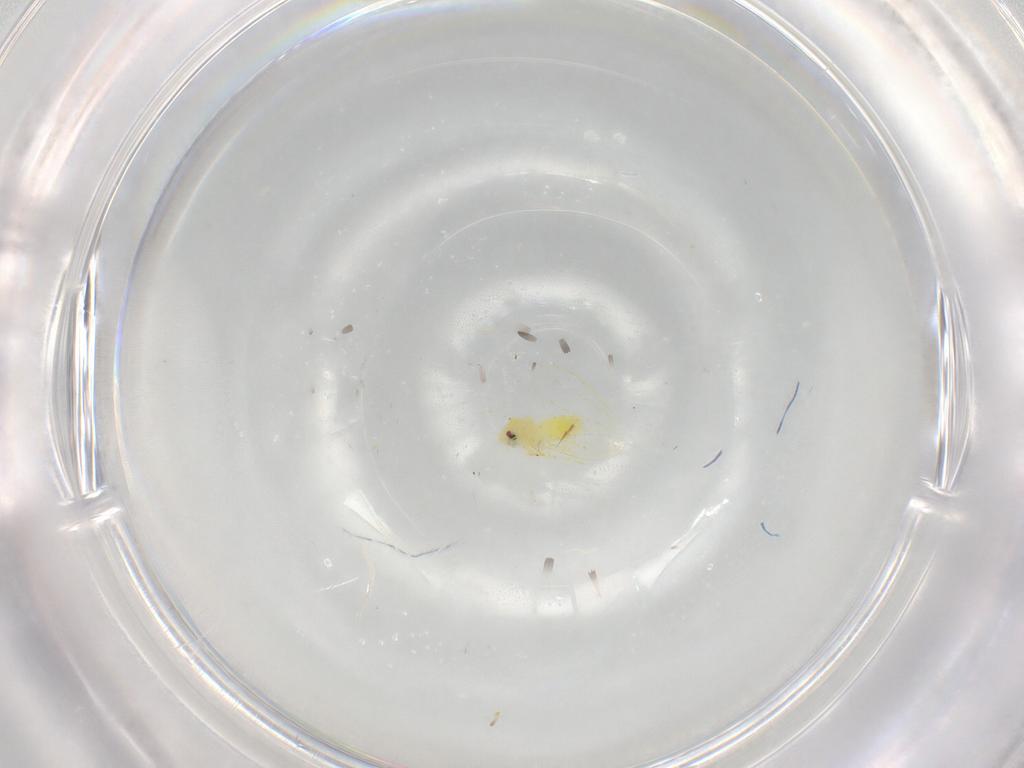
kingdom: Animalia
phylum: Arthropoda
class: Insecta
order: Hemiptera
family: Aleyrodidae
